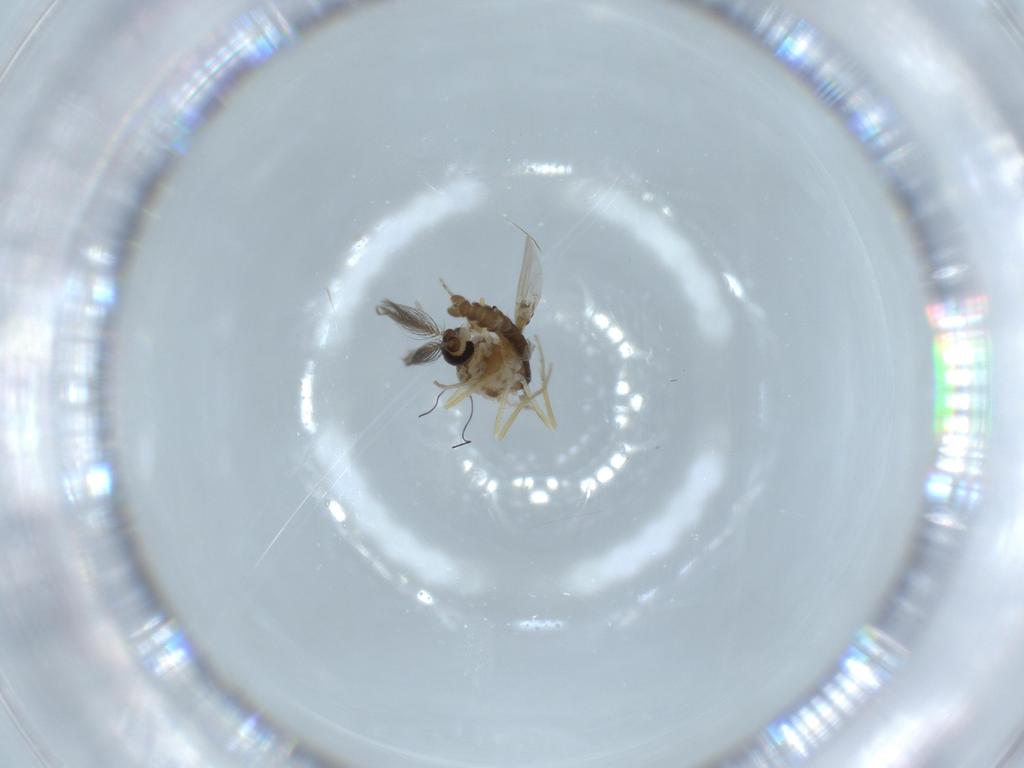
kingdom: Animalia
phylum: Arthropoda
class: Insecta
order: Diptera
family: Ceratopogonidae
